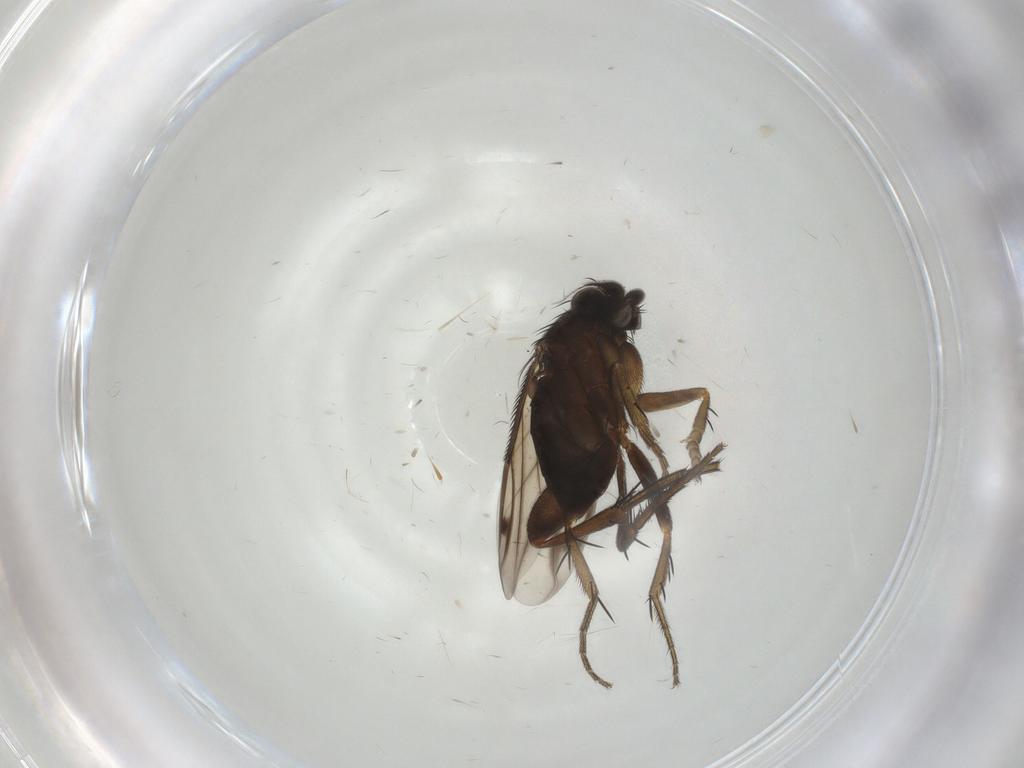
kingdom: Animalia
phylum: Arthropoda
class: Insecta
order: Diptera
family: Phoridae
